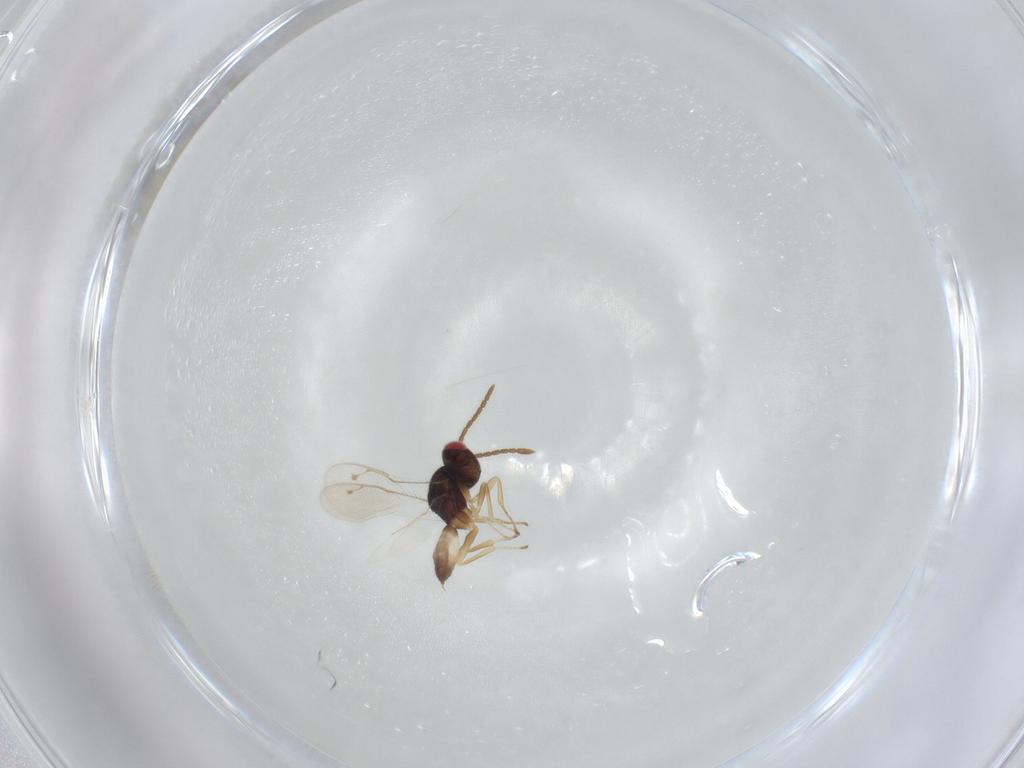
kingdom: Animalia
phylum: Arthropoda
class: Insecta
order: Hymenoptera
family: Pteromalidae
